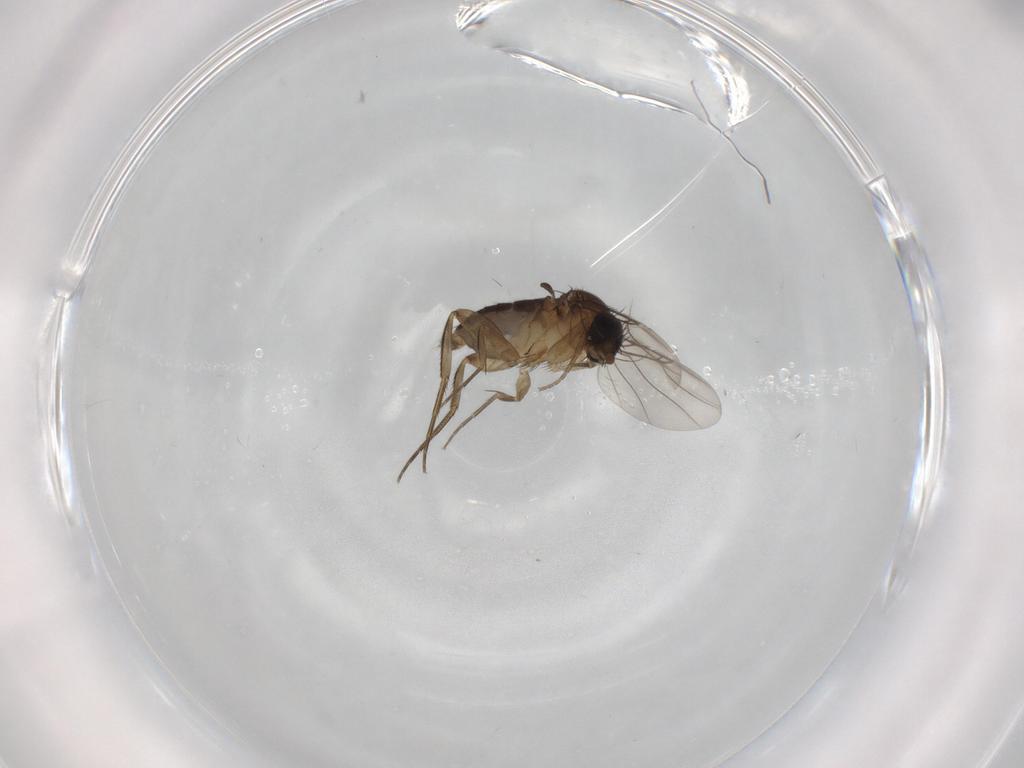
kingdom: Animalia
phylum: Arthropoda
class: Insecta
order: Diptera
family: Phoridae
